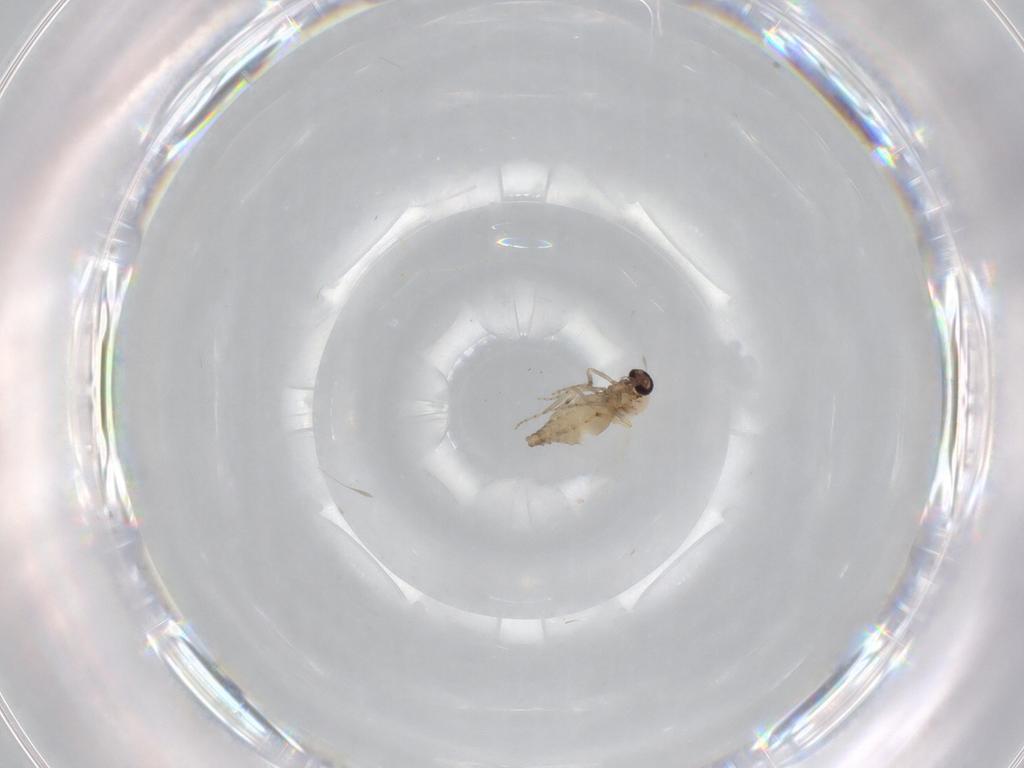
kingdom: Animalia
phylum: Arthropoda
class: Insecta
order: Diptera
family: Ceratopogonidae
